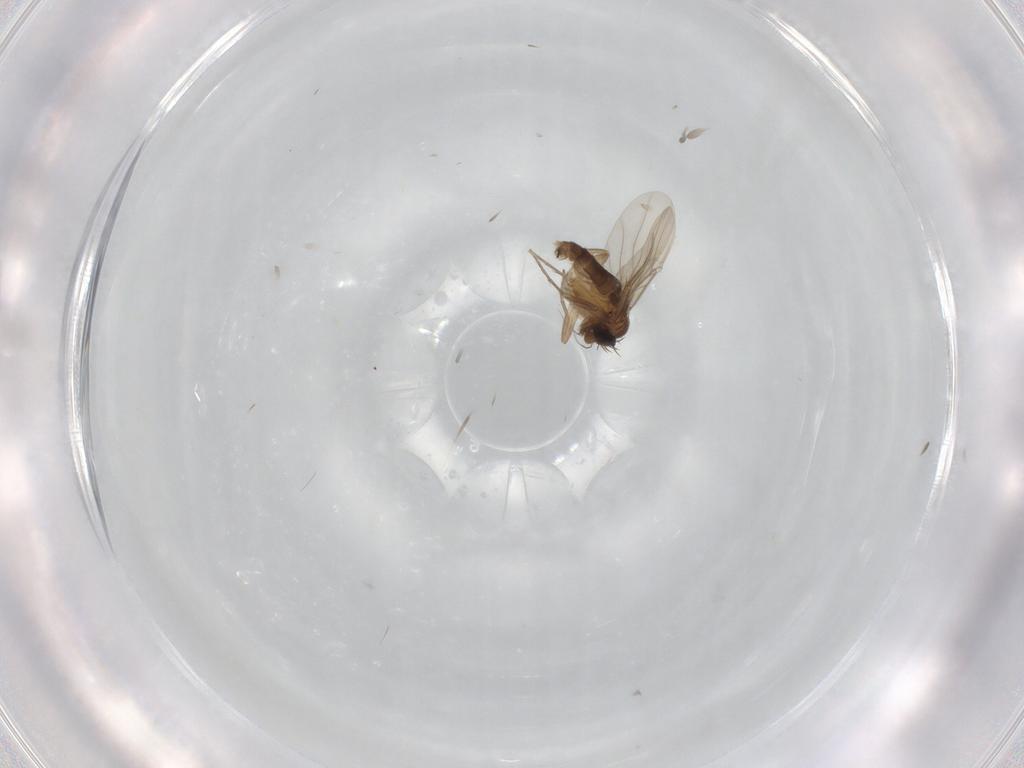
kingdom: Animalia
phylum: Arthropoda
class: Insecta
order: Diptera
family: Phoridae
